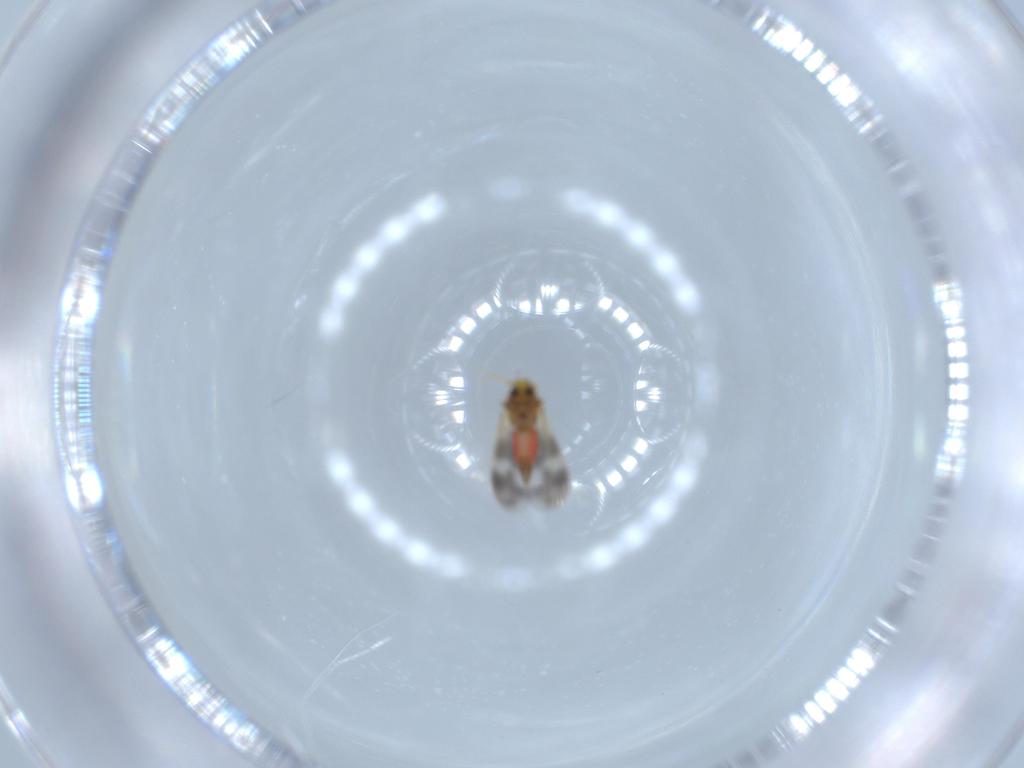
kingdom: Animalia
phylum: Arthropoda
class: Insecta
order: Hemiptera
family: Aleyrodidae
